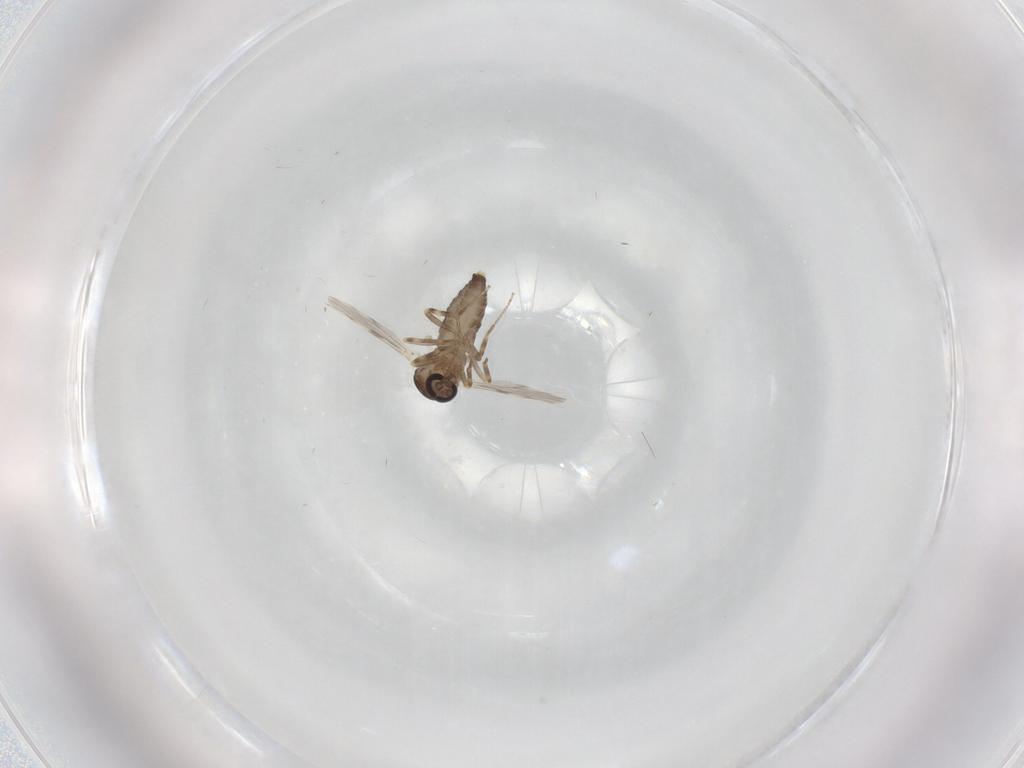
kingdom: Animalia
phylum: Arthropoda
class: Insecta
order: Diptera
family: Ceratopogonidae
